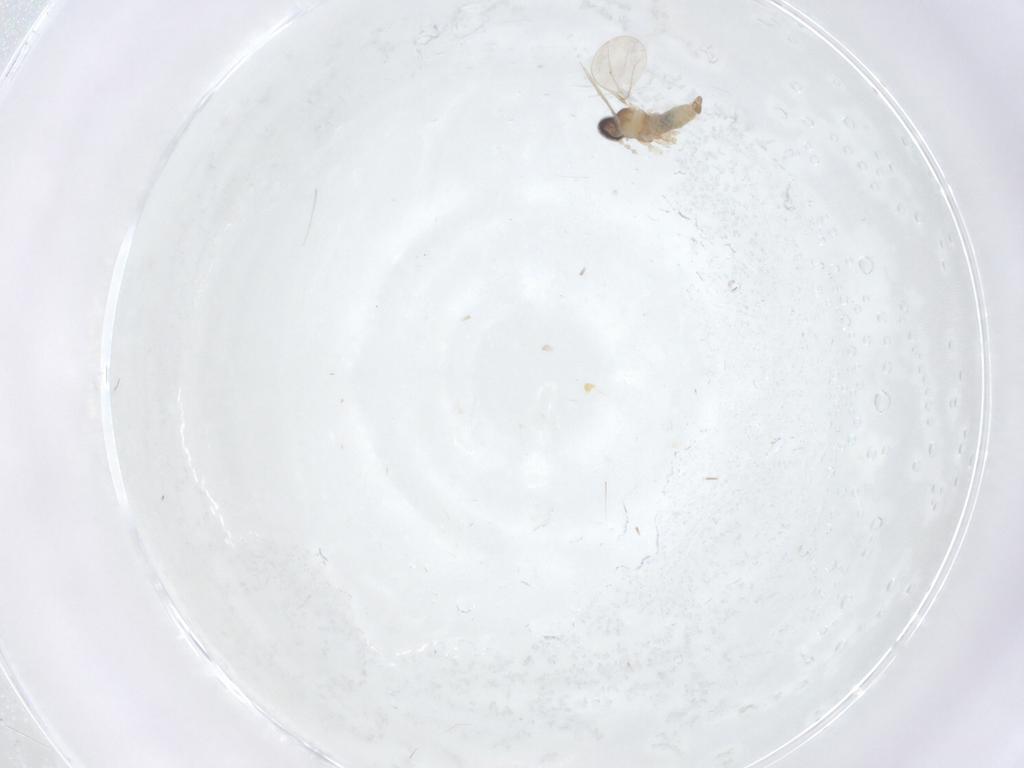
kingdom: Animalia
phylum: Arthropoda
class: Insecta
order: Diptera
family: Cecidomyiidae
